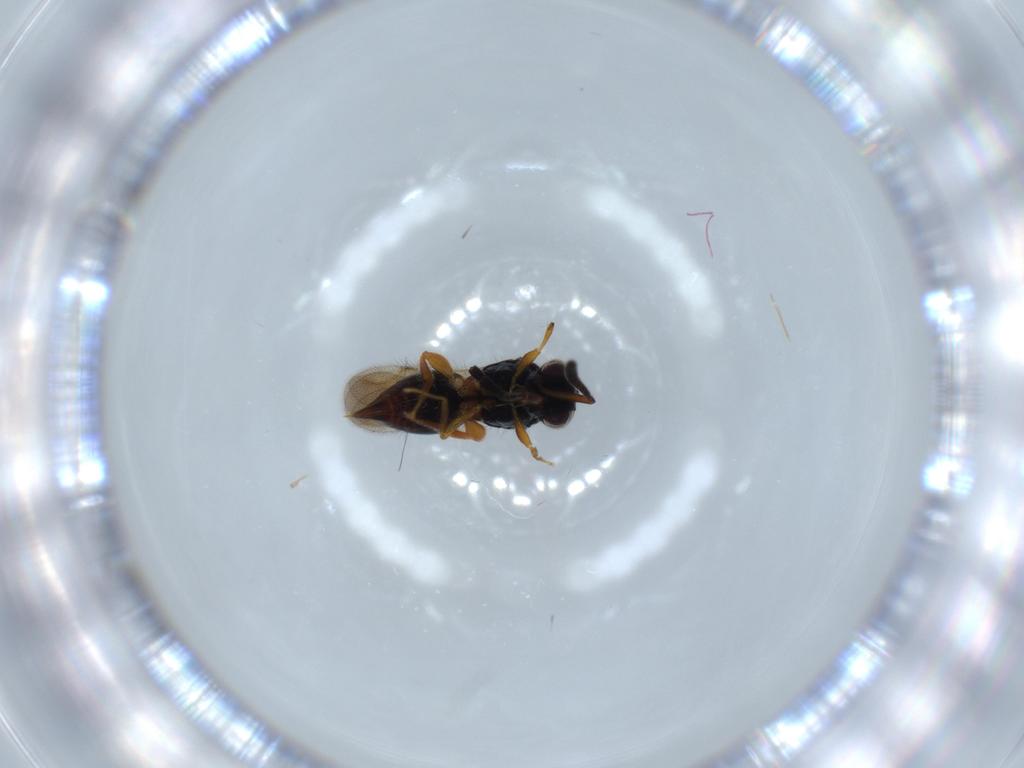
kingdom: Animalia
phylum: Arthropoda
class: Insecta
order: Hymenoptera
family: Ceraphronidae
